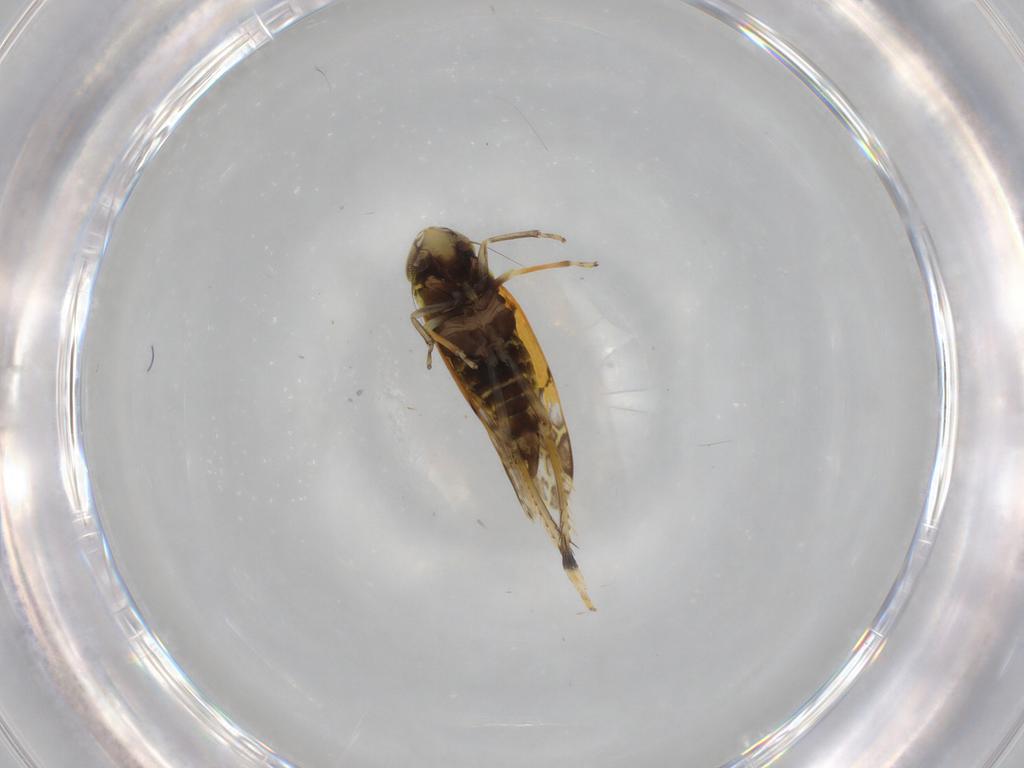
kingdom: Animalia
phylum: Arthropoda
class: Insecta
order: Hemiptera
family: Cicadellidae
